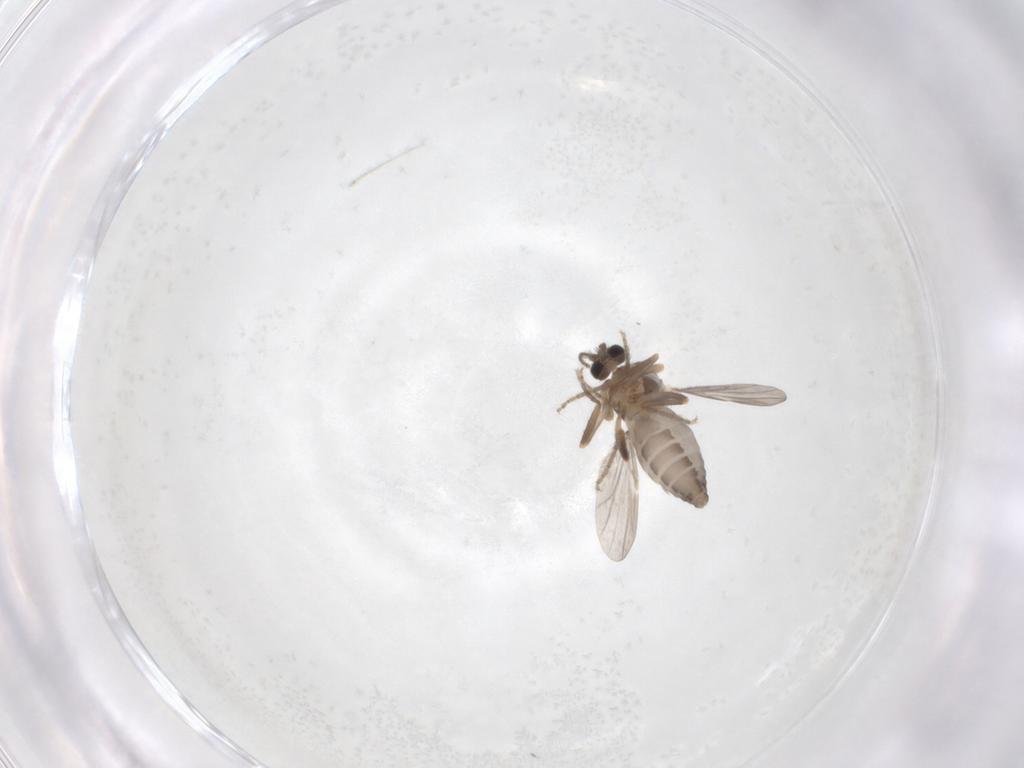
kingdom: Animalia
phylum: Arthropoda
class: Insecta
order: Diptera
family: Ceratopogonidae
